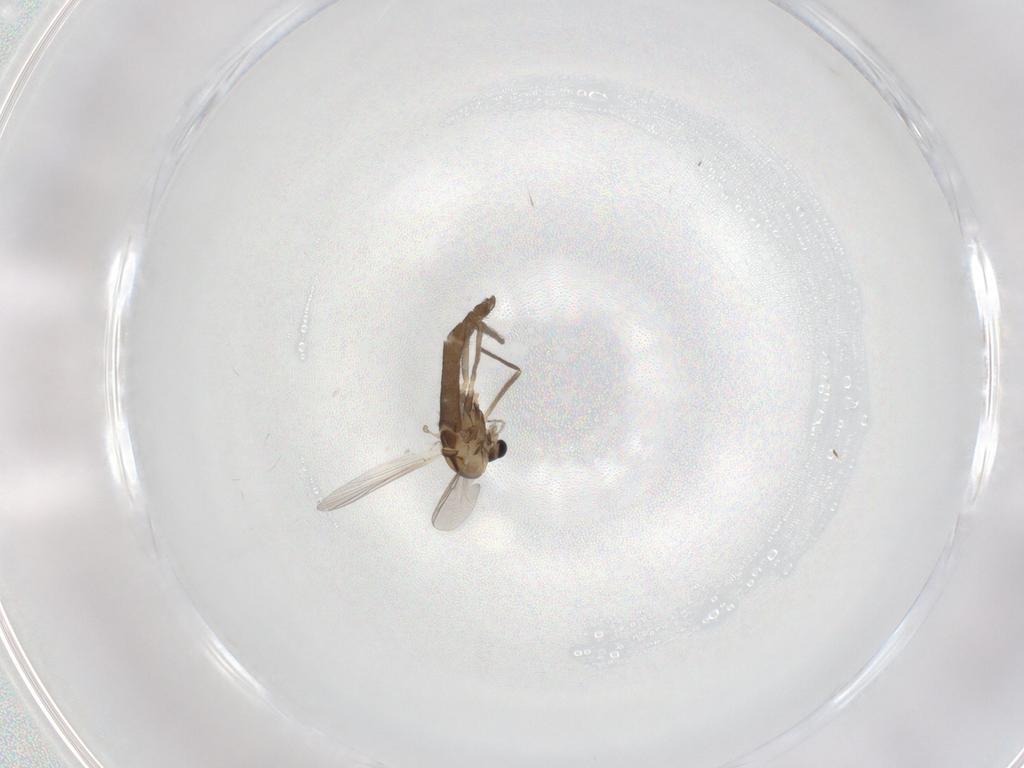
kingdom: Animalia
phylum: Arthropoda
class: Insecta
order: Diptera
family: Chironomidae
